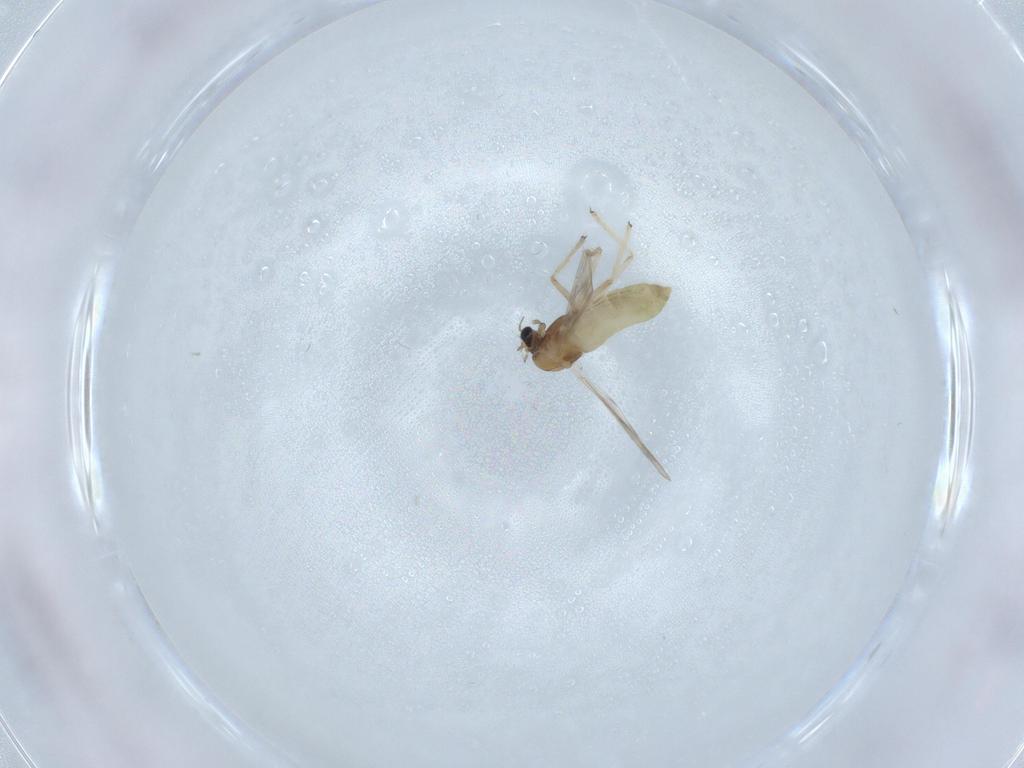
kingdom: Animalia
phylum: Arthropoda
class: Insecta
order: Diptera
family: Chironomidae
